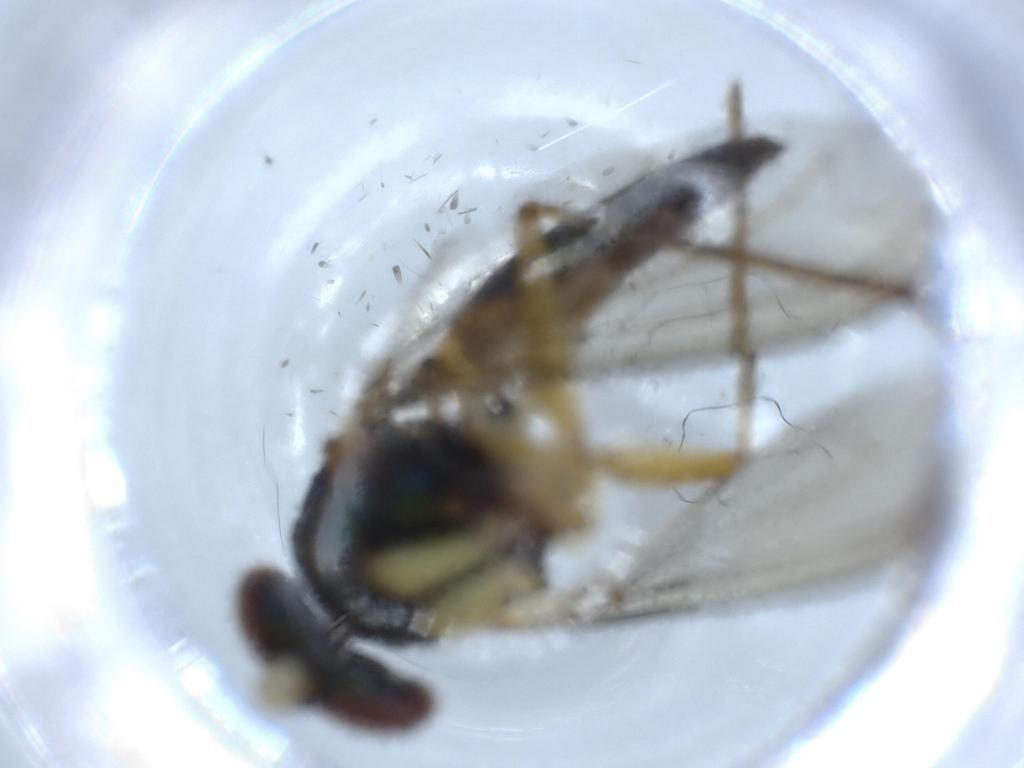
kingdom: Animalia
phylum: Arthropoda
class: Insecta
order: Diptera
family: Dolichopodidae
